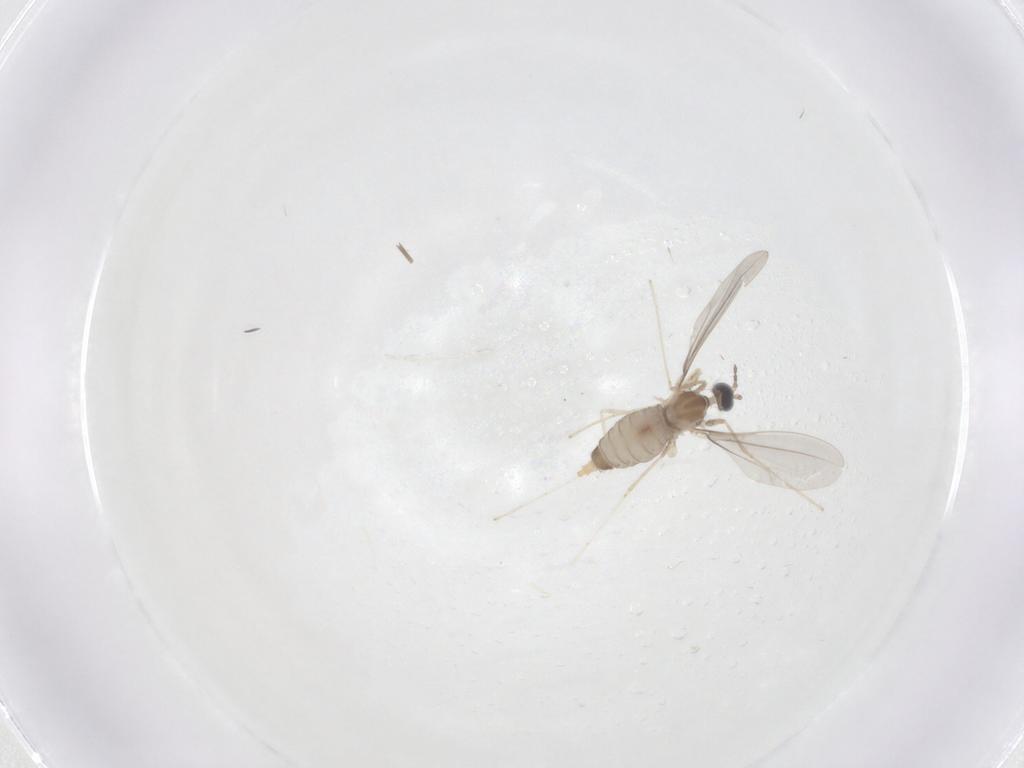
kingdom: Animalia
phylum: Arthropoda
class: Insecta
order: Diptera
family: Cecidomyiidae
